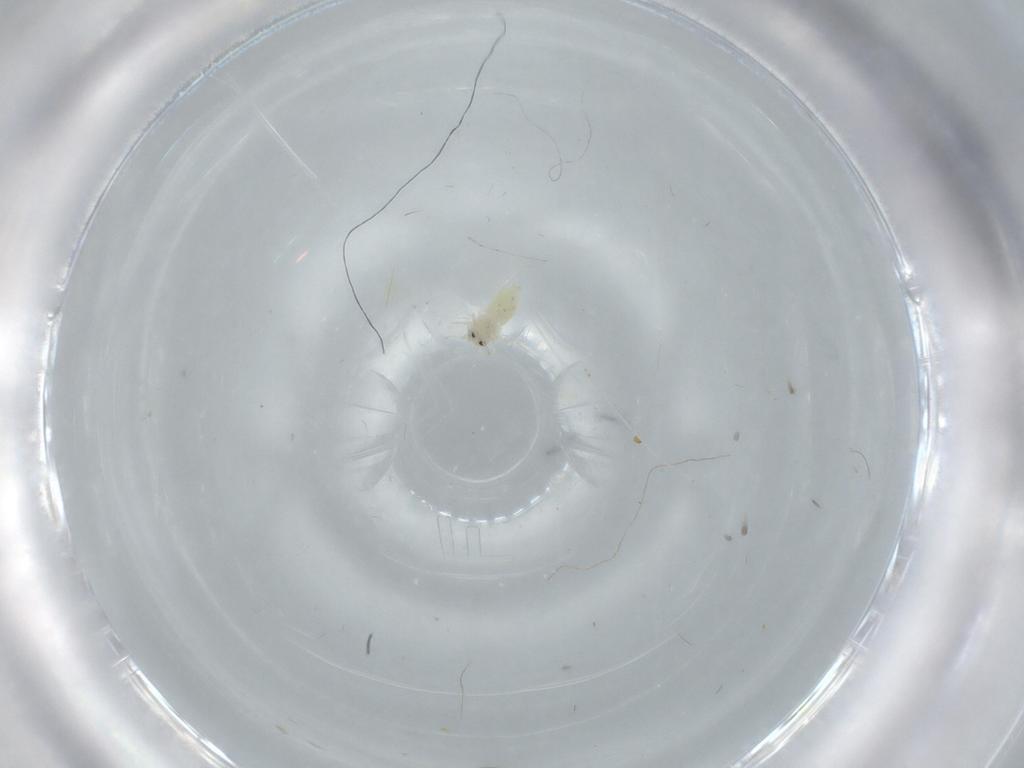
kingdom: Animalia
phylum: Arthropoda
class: Insecta
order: Hemiptera
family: Aleyrodidae
